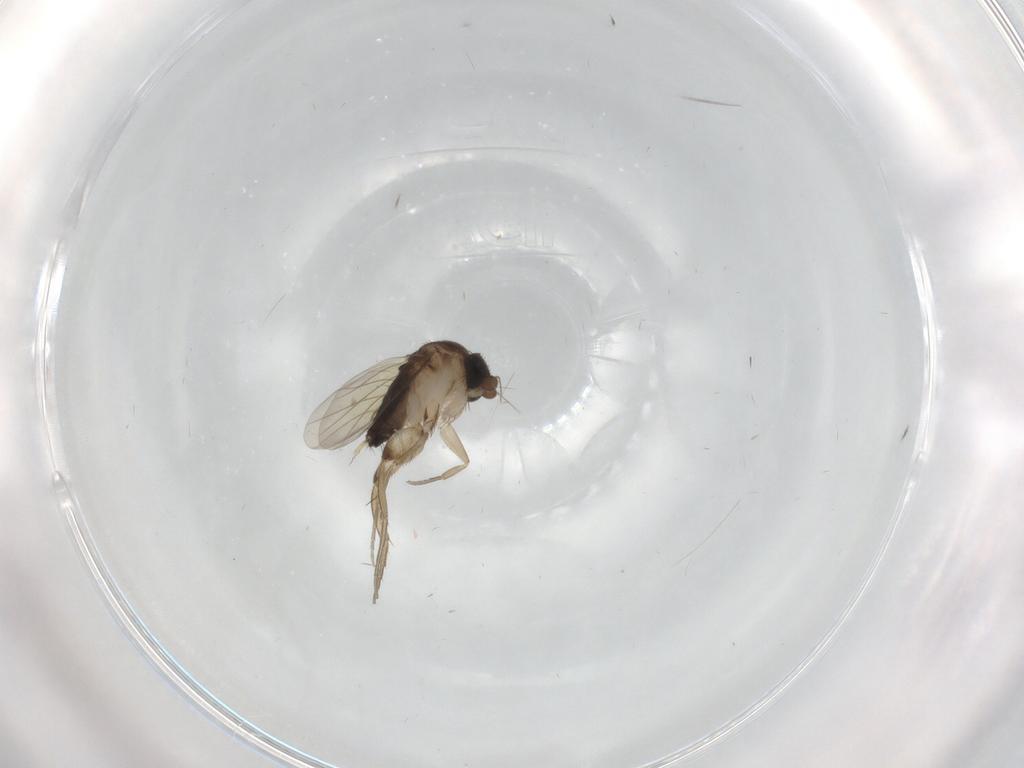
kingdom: Animalia
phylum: Arthropoda
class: Insecta
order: Diptera
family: Phoridae
